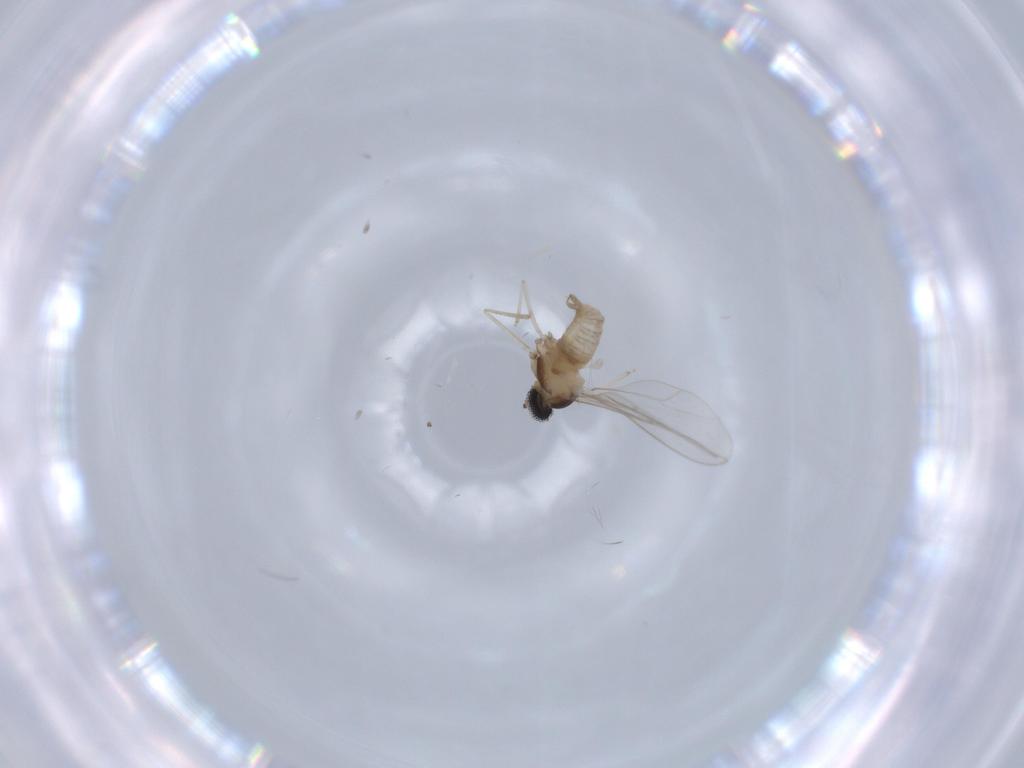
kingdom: Animalia
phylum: Arthropoda
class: Insecta
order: Diptera
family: Cecidomyiidae
